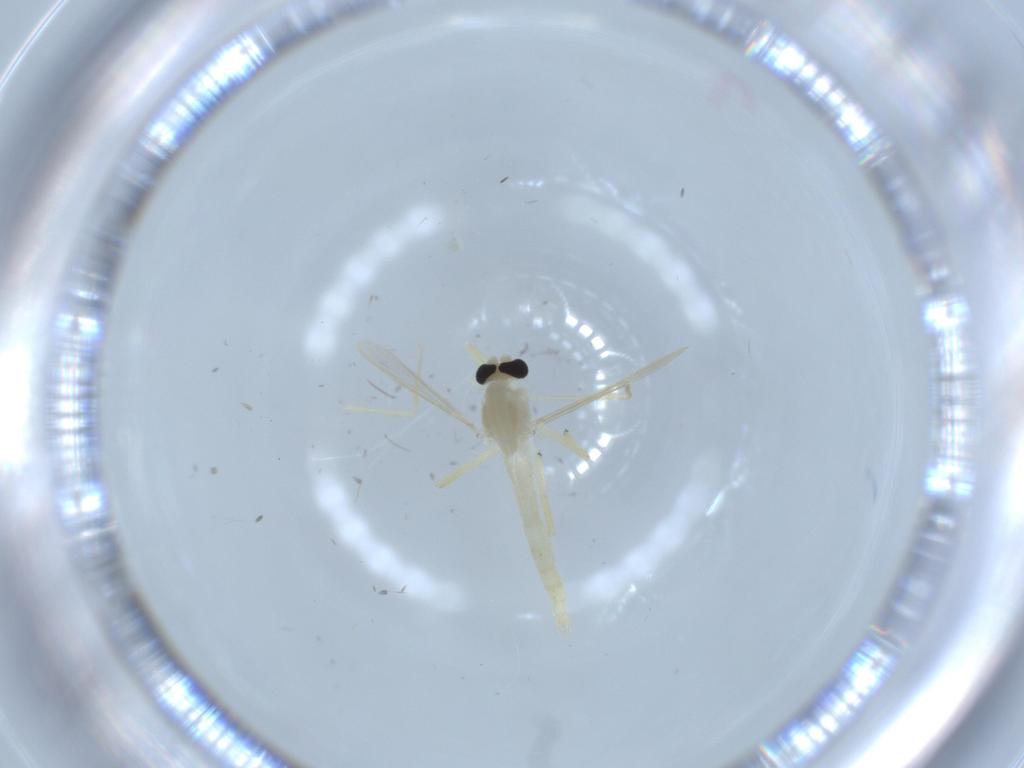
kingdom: Animalia
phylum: Arthropoda
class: Insecta
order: Diptera
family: Chironomidae
